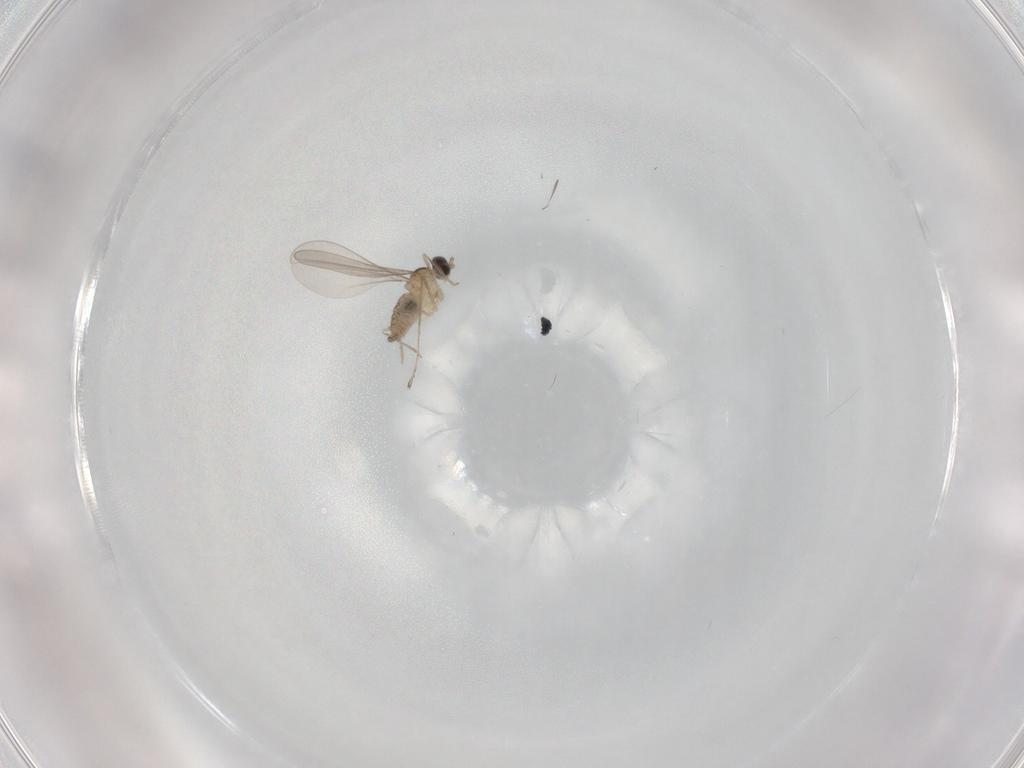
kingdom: Animalia
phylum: Arthropoda
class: Insecta
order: Diptera
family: Cecidomyiidae
